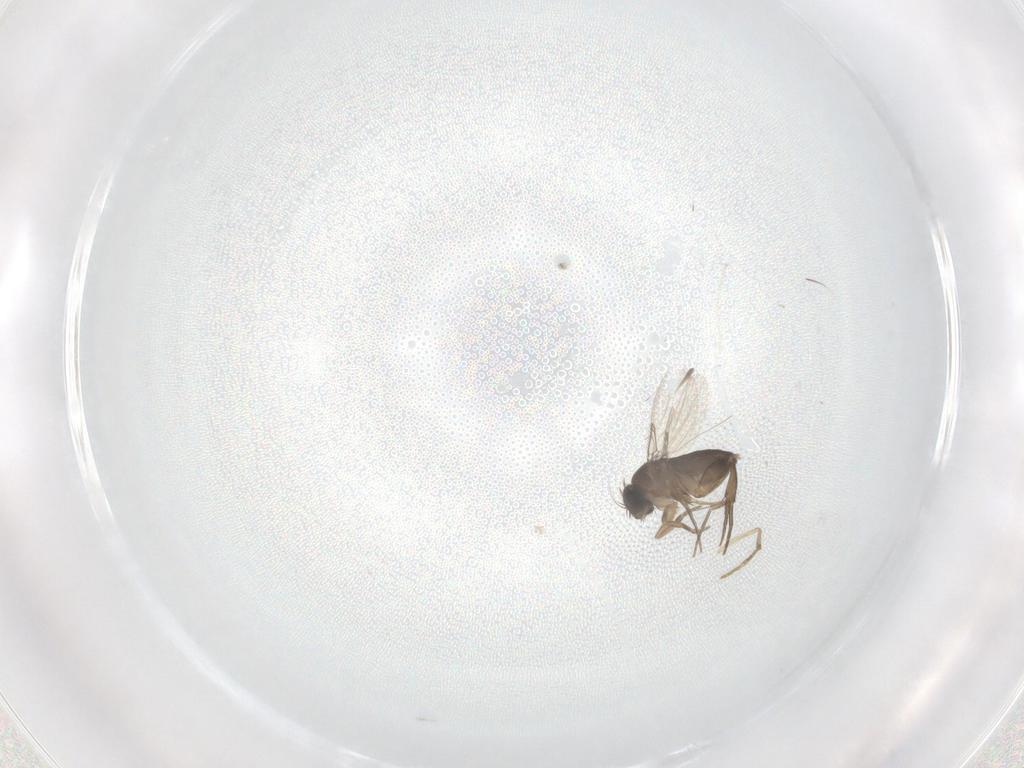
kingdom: Animalia
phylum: Arthropoda
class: Insecta
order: Diptera
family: Phoridae
